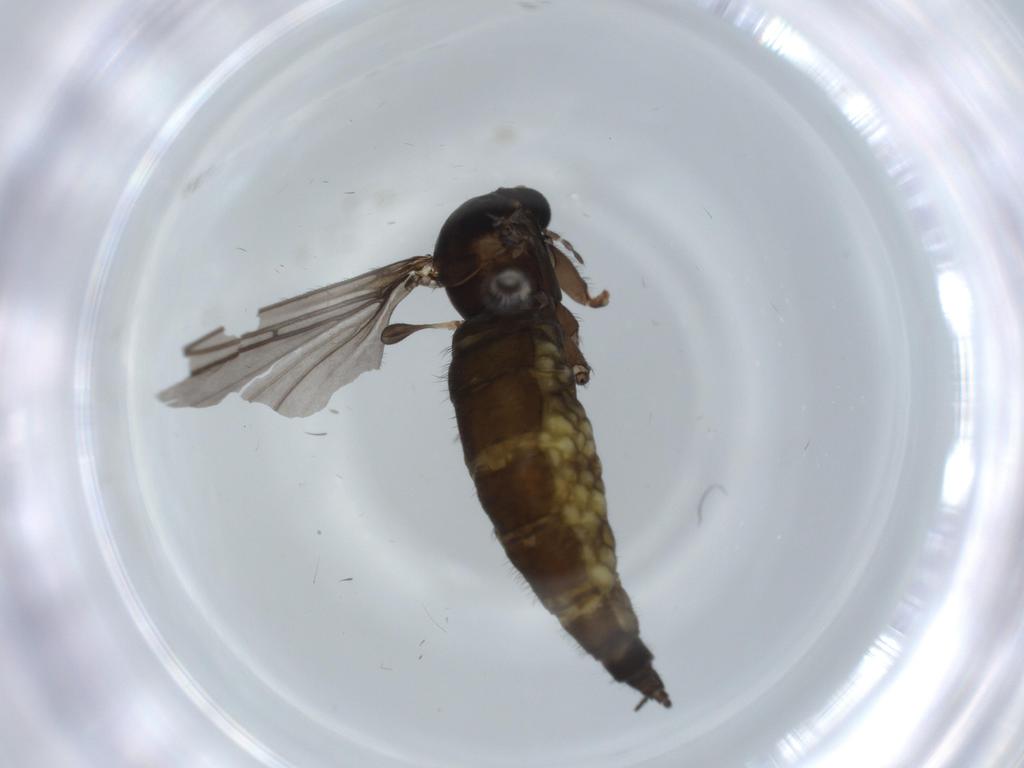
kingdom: Animalia
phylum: Arthropoda
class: Insecta
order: Diptera
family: Sciaridae
